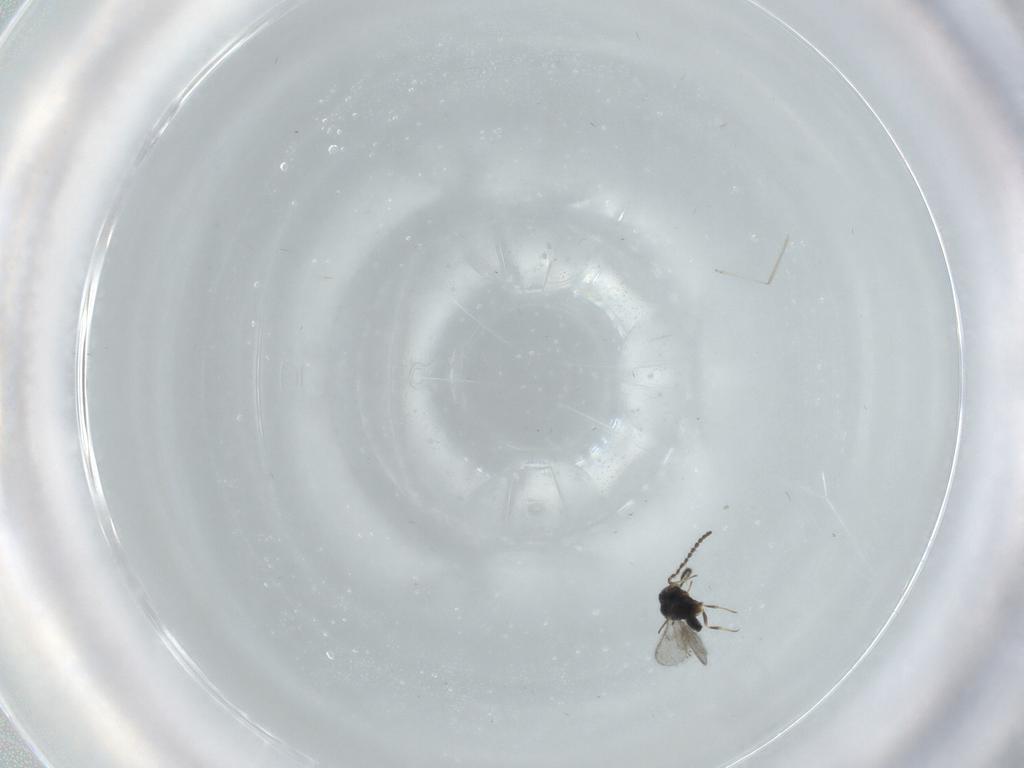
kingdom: Animalia
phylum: Arthropoda
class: Insecta
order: Hymenoptera
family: Scelionidae
